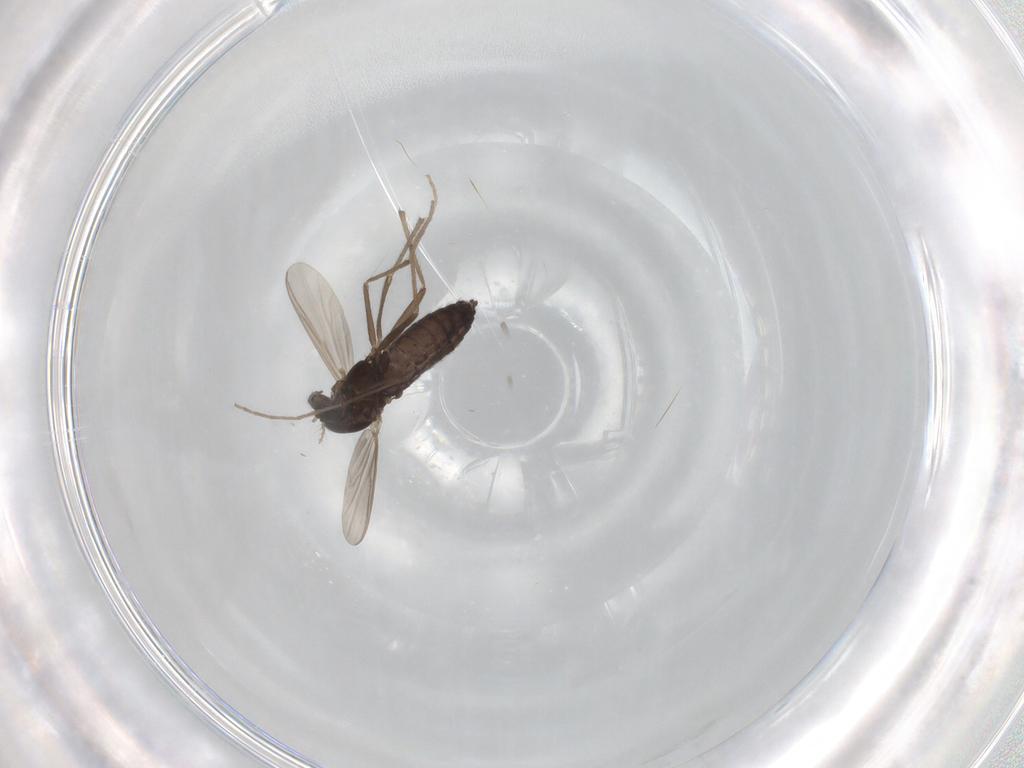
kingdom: Animalia
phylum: Arthropoda
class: Insecta
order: Diptera
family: Chironomidae
